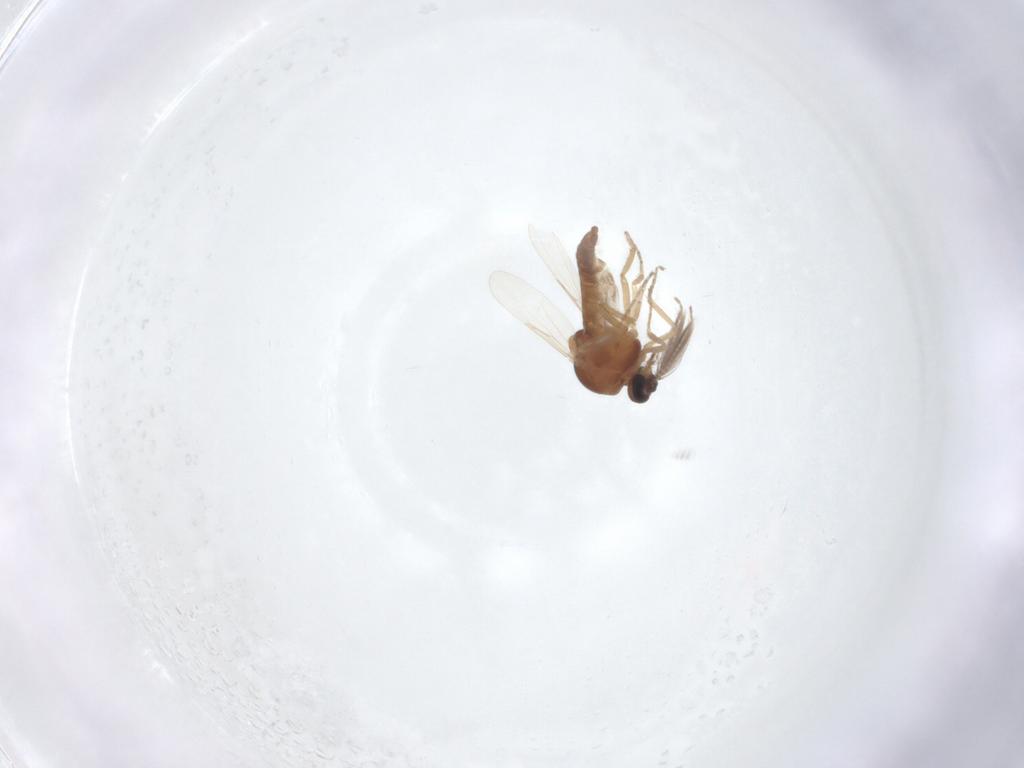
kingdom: Animalia
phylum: Arthropoda
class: Insecta
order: Diptera
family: Ceratopogonidae
